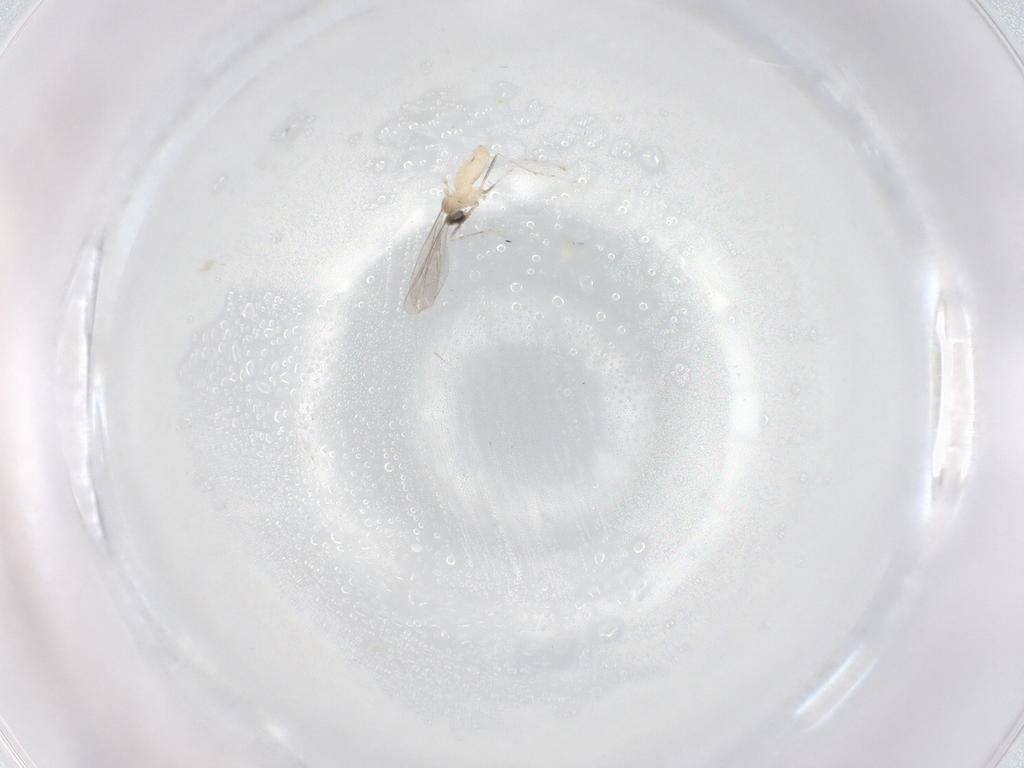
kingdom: Animalia
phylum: Arthropoda
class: Insecta
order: Diptera
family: Cecidomyiidae
